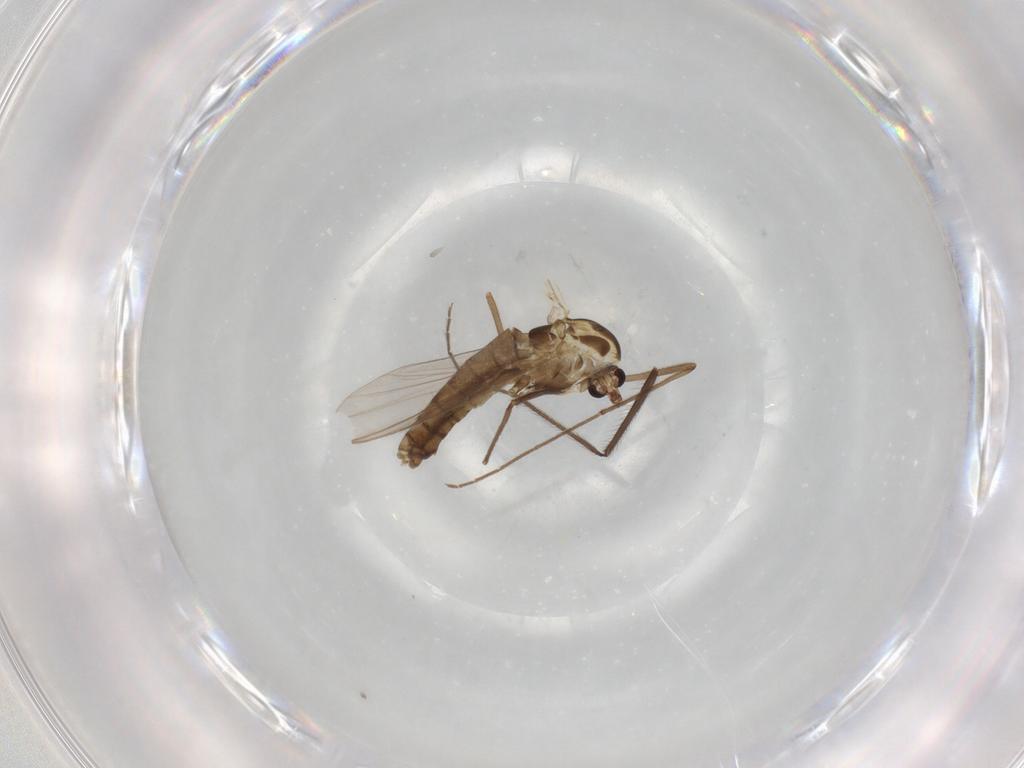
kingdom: Animalia
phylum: Arthropoda
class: Insecta
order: Diptera
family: Chironomidae
